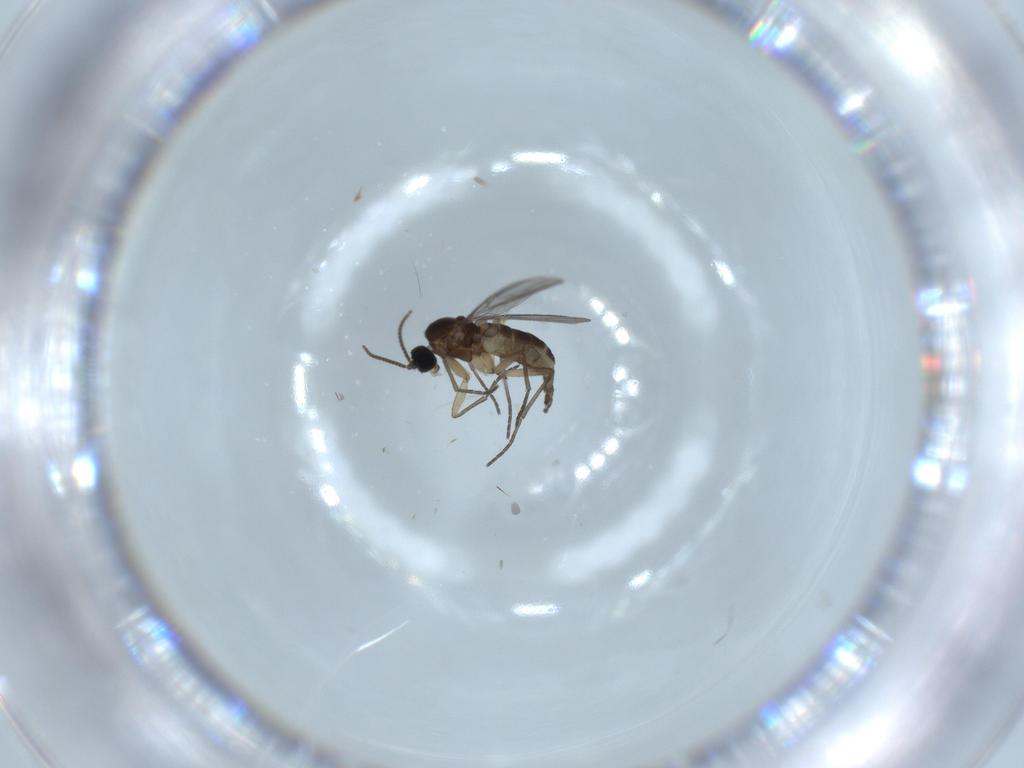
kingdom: Animalia
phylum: Arthropoda
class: Insecta
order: Diptera
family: Sciaridae
